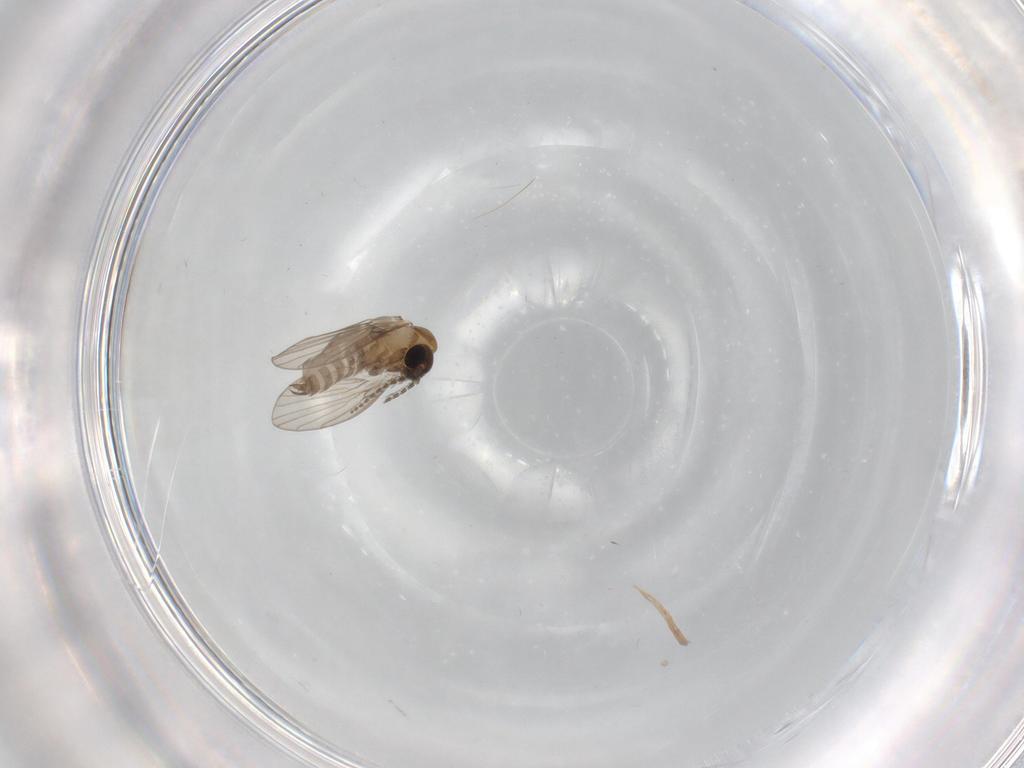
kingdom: Animalia
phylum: Arthropoda
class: Insecta
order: Diptera
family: Psychodidae
